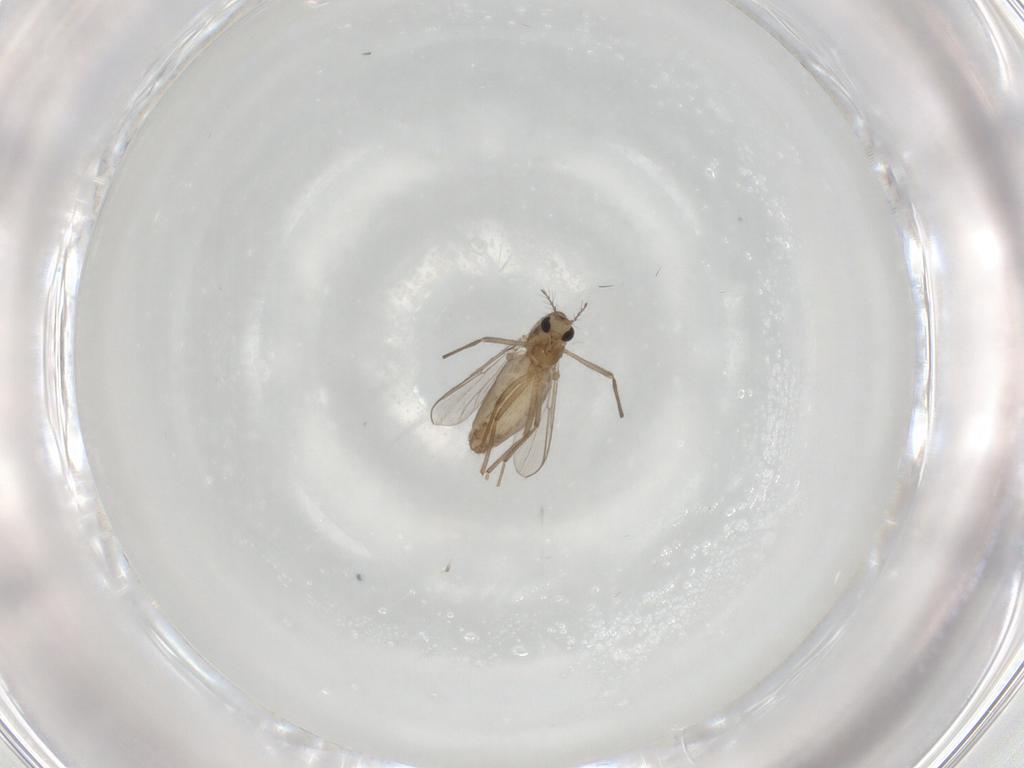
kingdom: Animalia
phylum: Arthropoda
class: Insecta
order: Diptera
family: Chironomidae
